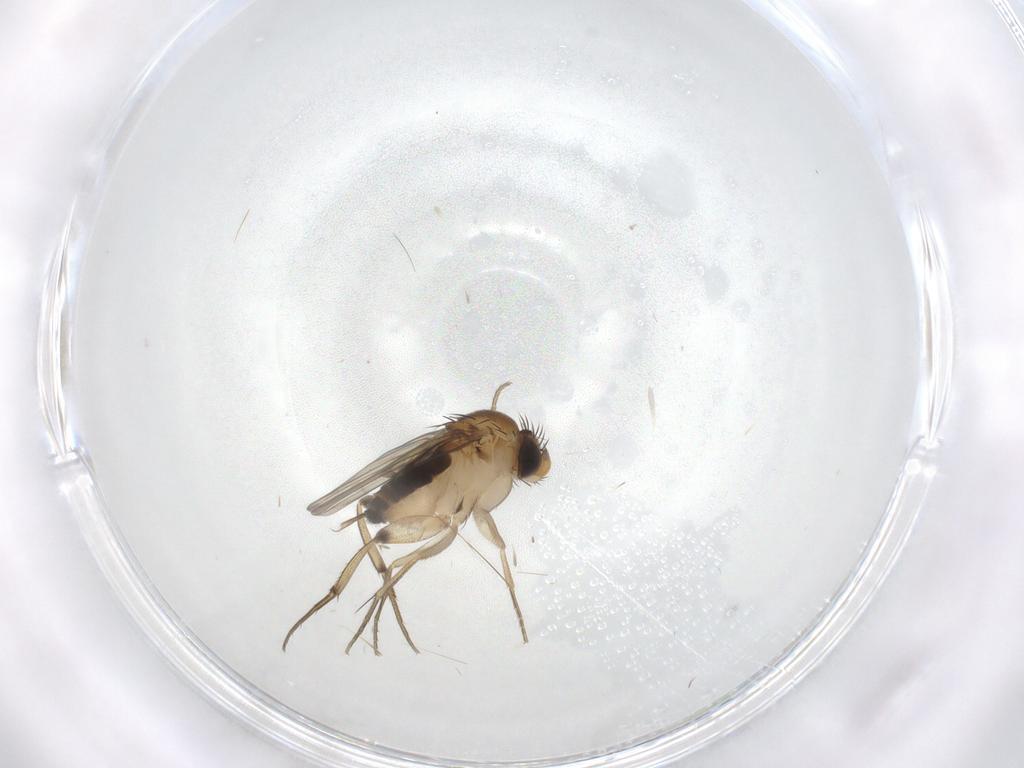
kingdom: Animalia
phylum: Arthropoda
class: Insecta
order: Diptera
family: Phoridae
